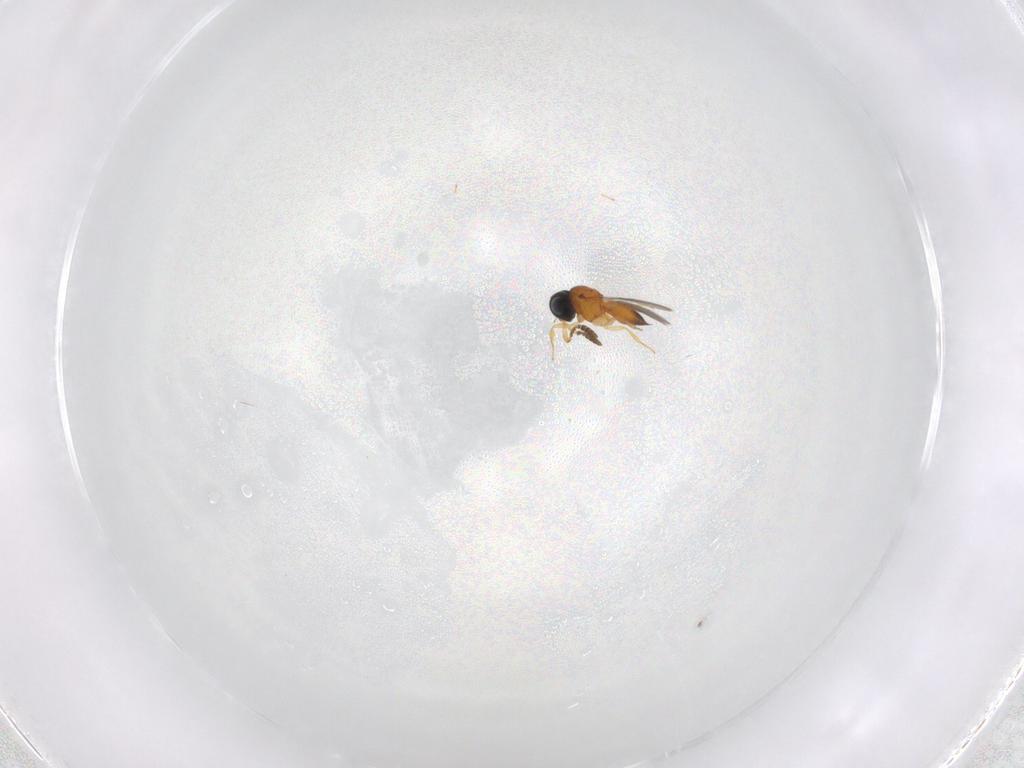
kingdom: Animalia
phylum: Arthropoda
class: Insecta
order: Hymenoptera
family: Scelionidae
